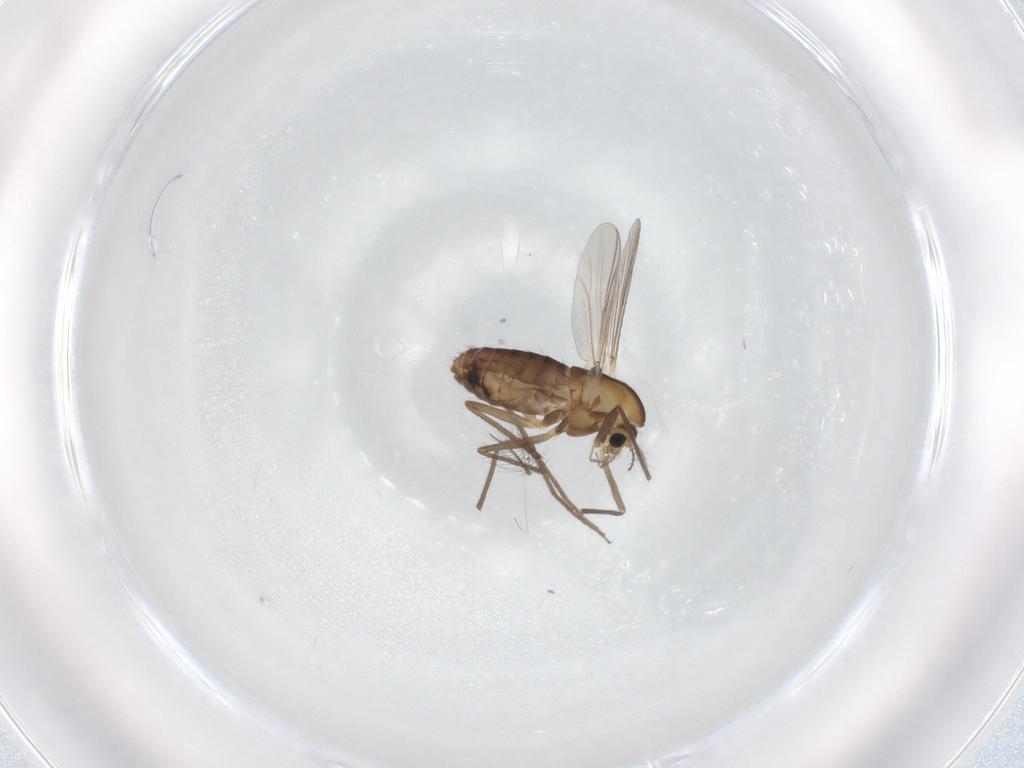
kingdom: Animalia
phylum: Arthropoda
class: Insecta
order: Diptera
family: Chironomidae
